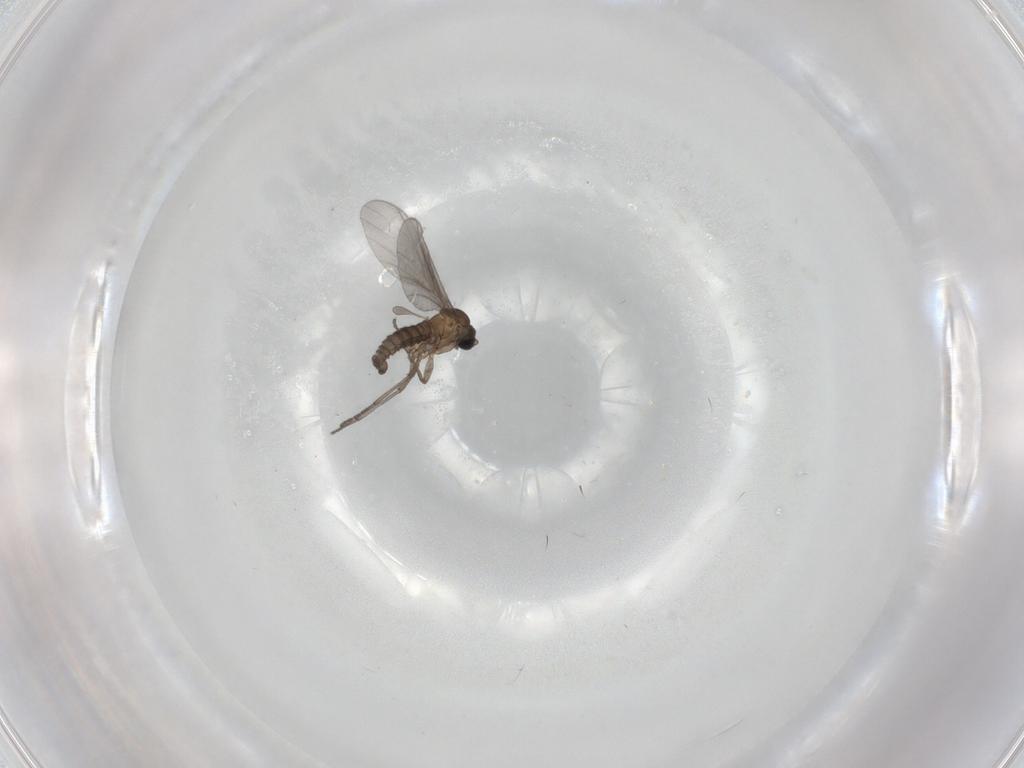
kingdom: Animalia
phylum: Arthropoda
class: Insecta
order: Diptera
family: Sciaridae
